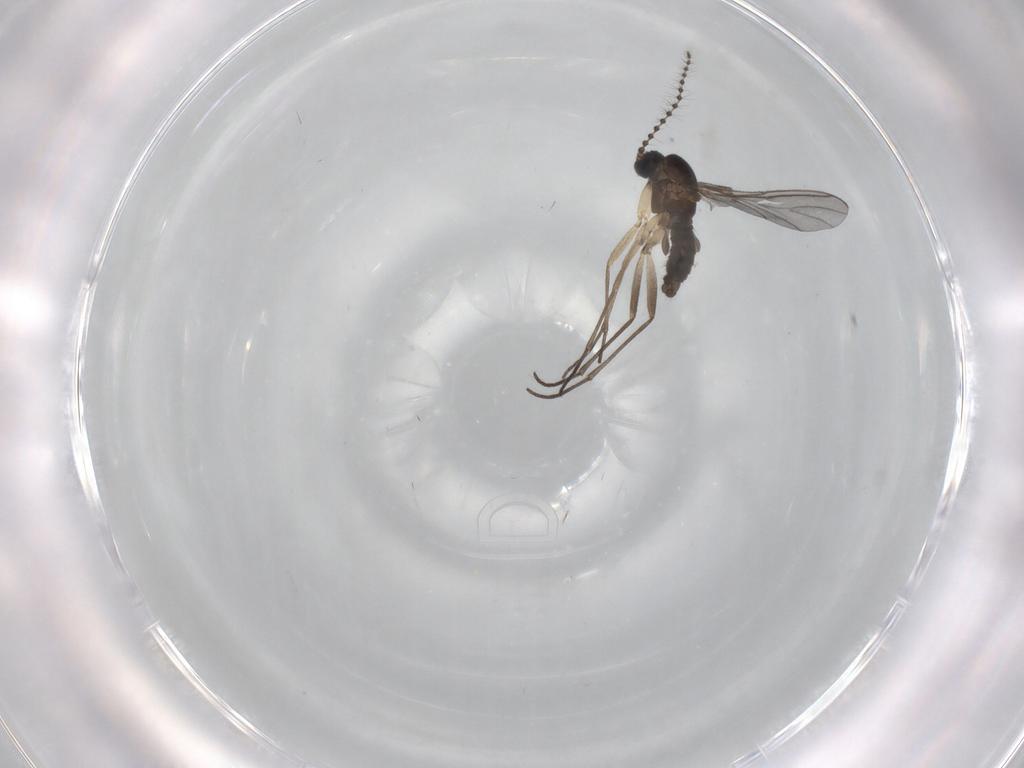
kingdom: Animalia
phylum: Arthropoda
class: Insecta
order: Diptera
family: Sciaridae
